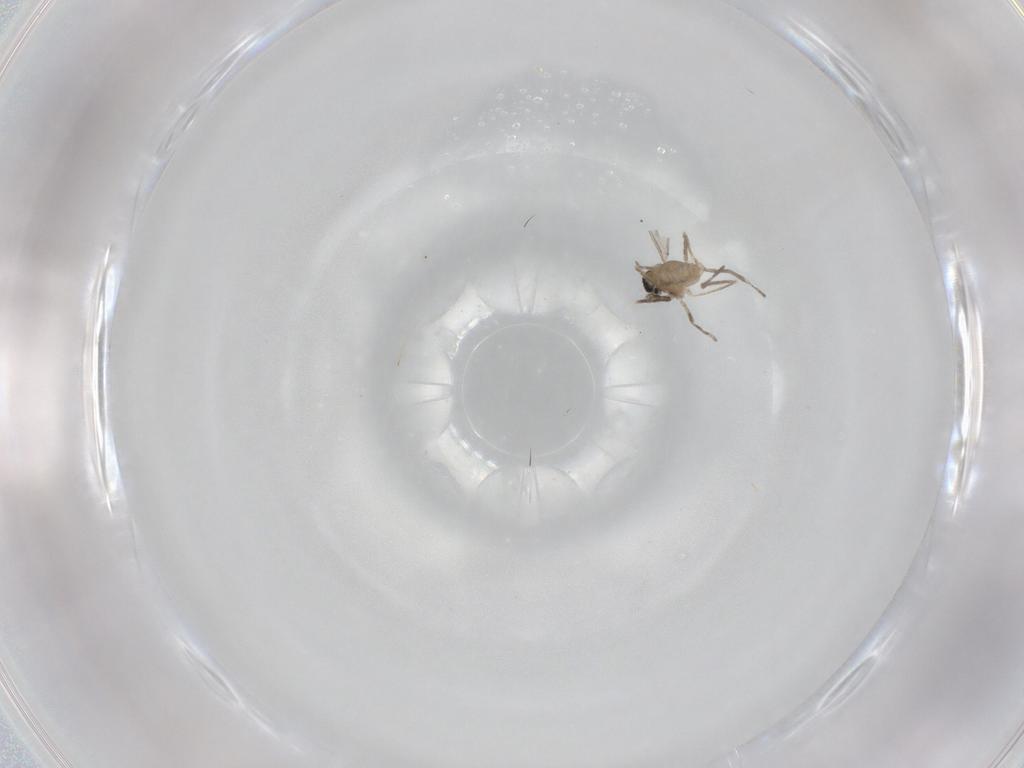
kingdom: Animalia
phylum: Arthropoda
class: Insecta
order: Diptera
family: Cecidomyiidae
